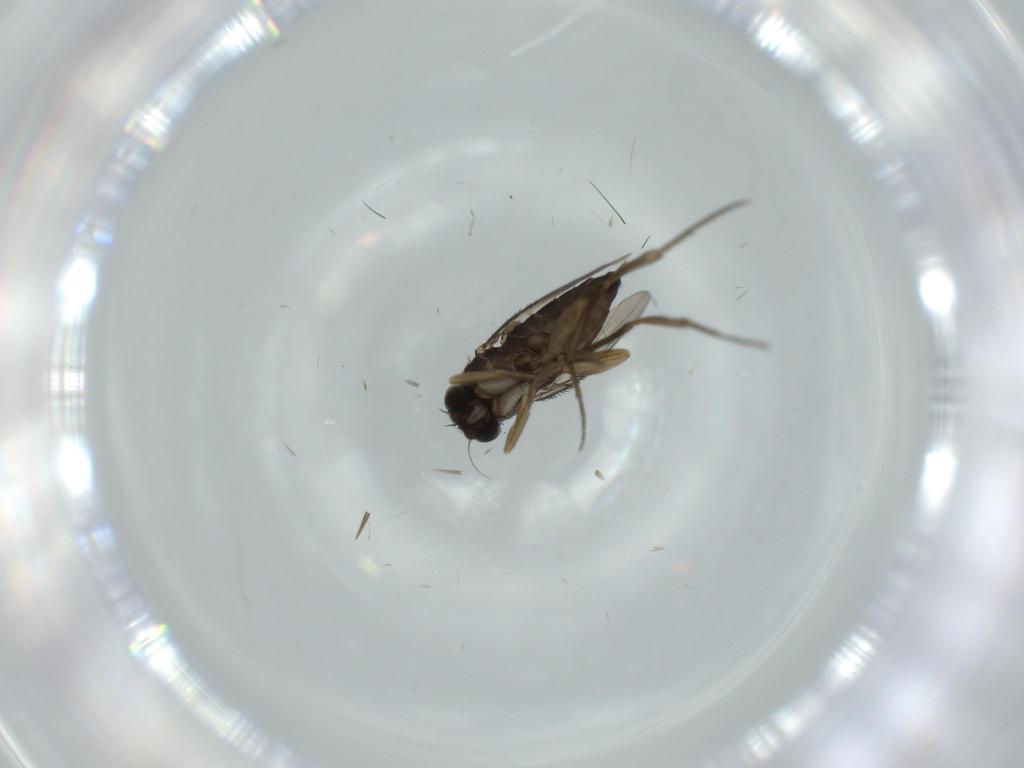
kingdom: Animalia
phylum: Arthropoda
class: Insecta
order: Diptera
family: Phoridae
